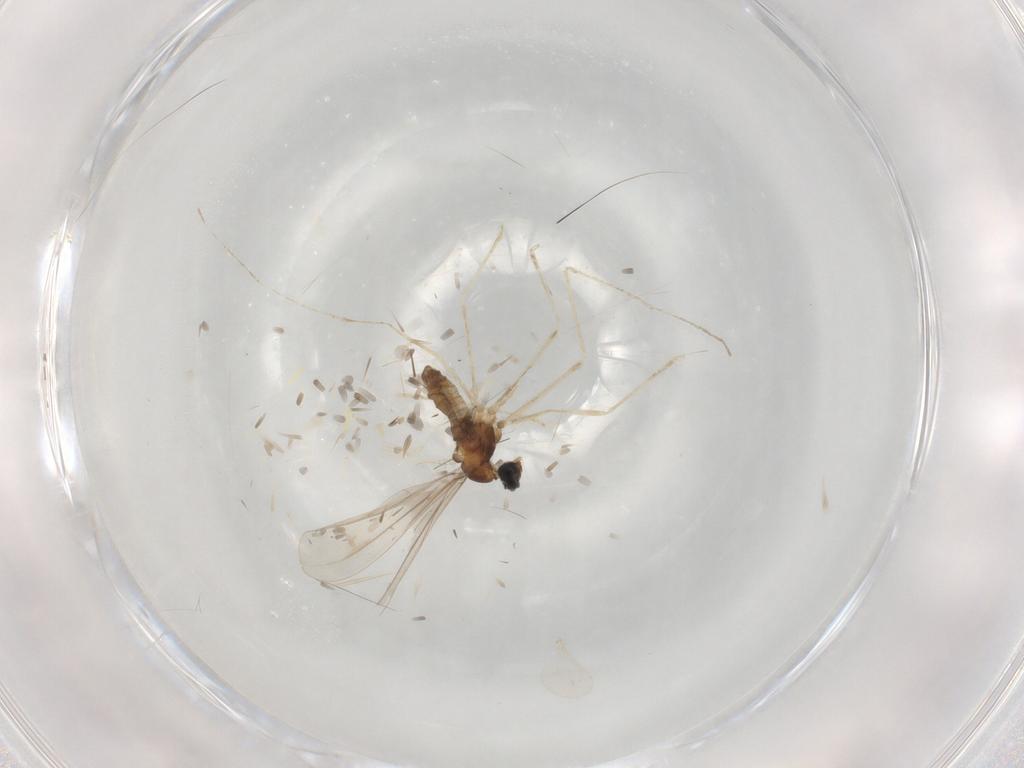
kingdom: Animalia
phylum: Arthropoda
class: Insecta
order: Diptera
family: Cecidomyiidae
